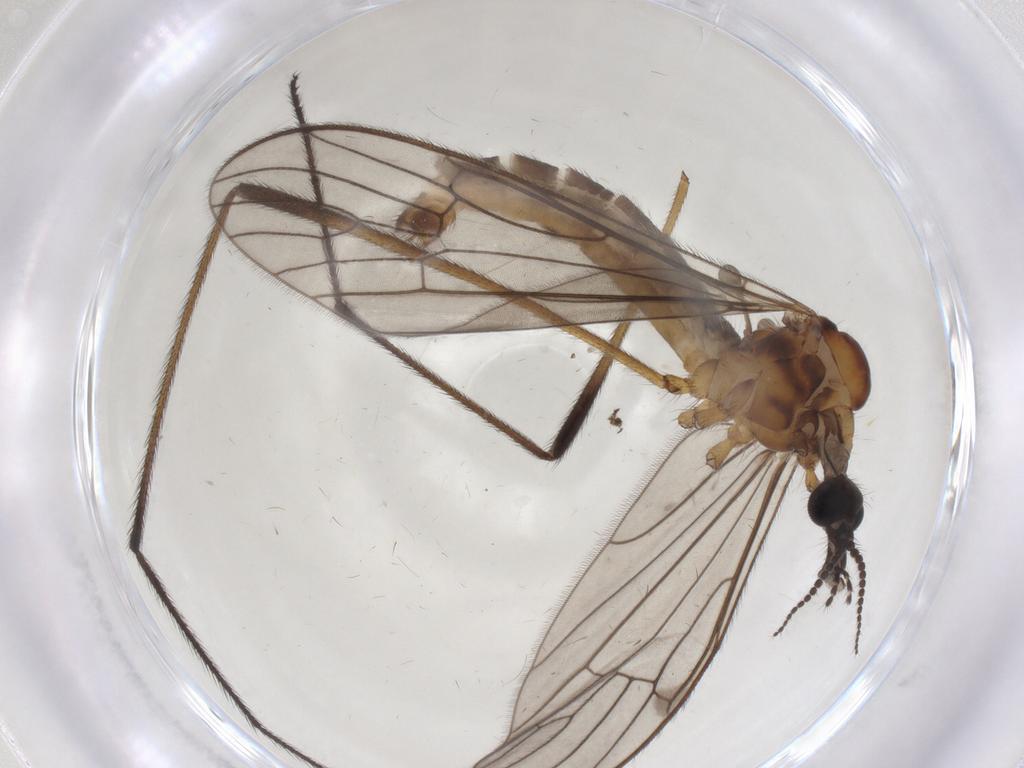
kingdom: Animalia
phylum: Arthropoda
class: Insecta
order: Diptera
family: Limoniidae
